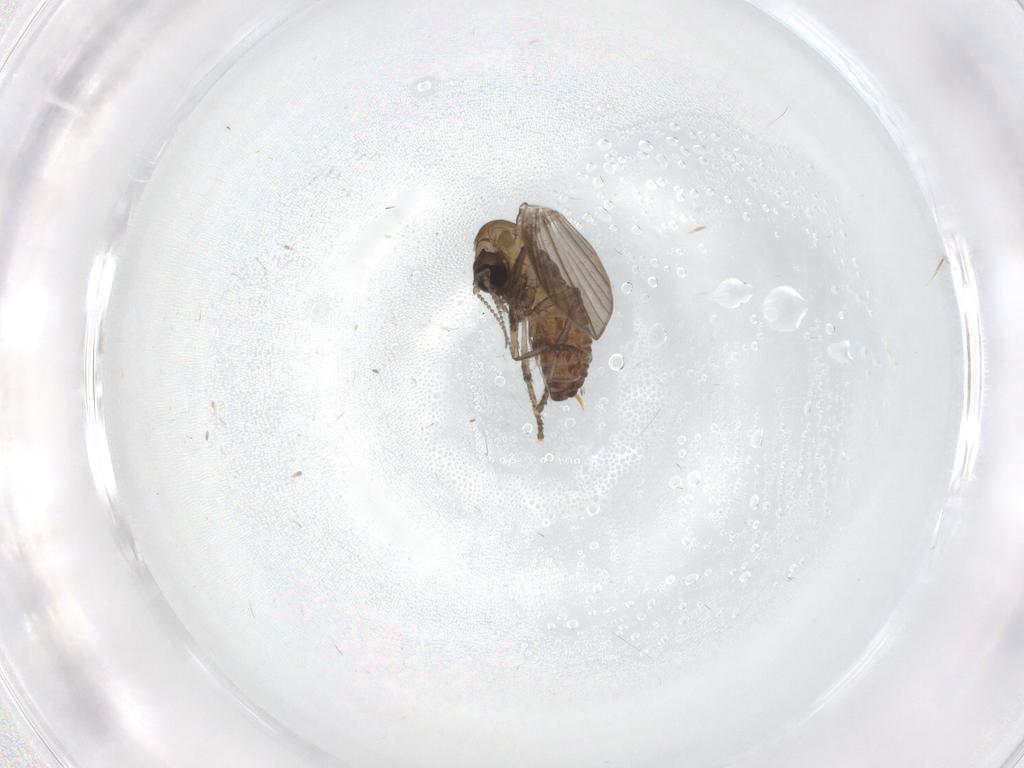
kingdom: Animalia
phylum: Arthropoda
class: Insecta
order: Diptera
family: Psychodidae
